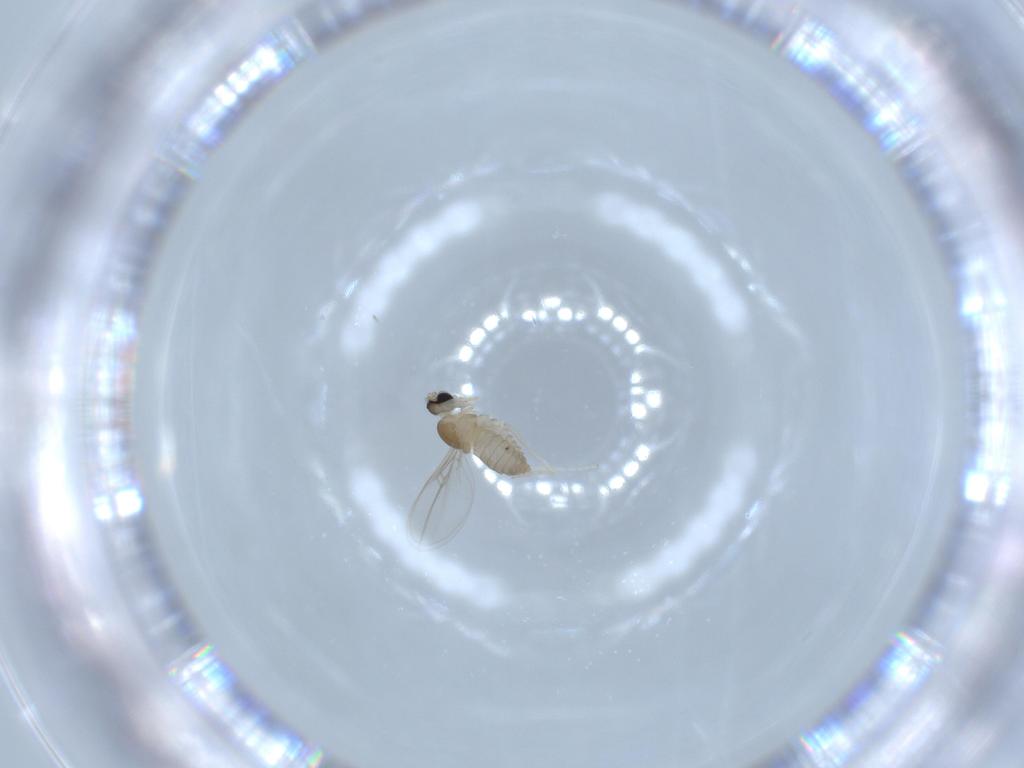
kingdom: Animalia
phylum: Arthropoda
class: Insecta
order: Diptera
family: Cecidomyiidae
